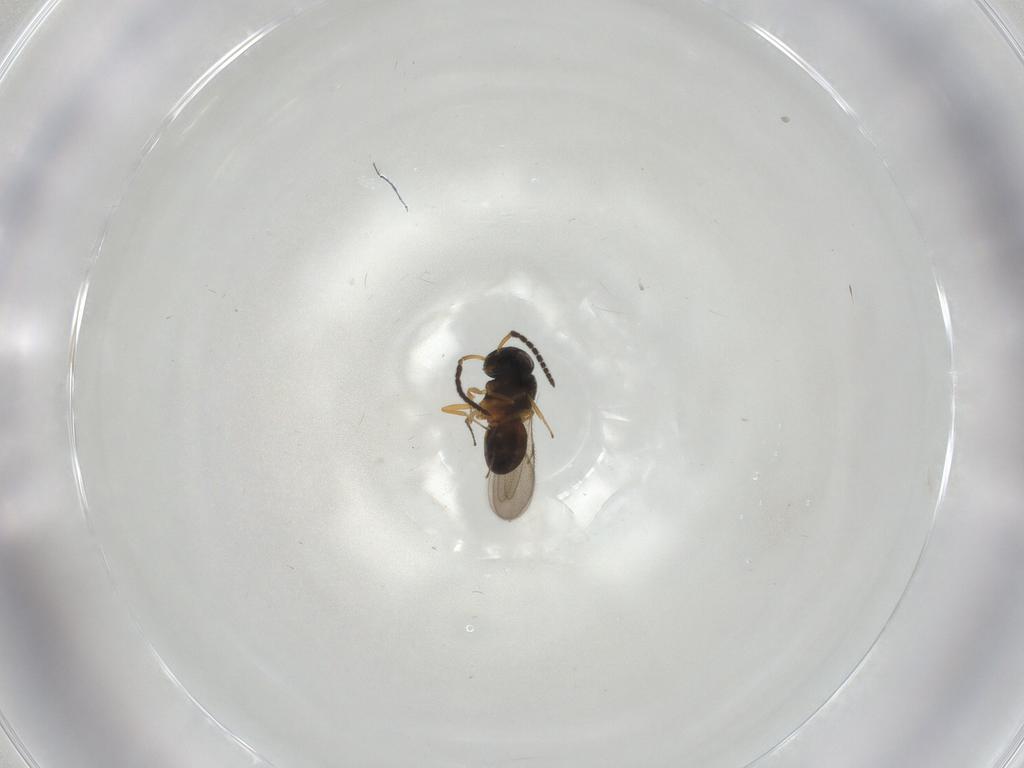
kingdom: Animalia
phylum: Arthropoda
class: Insecta
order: Hymenoptera
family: Scelionidae
